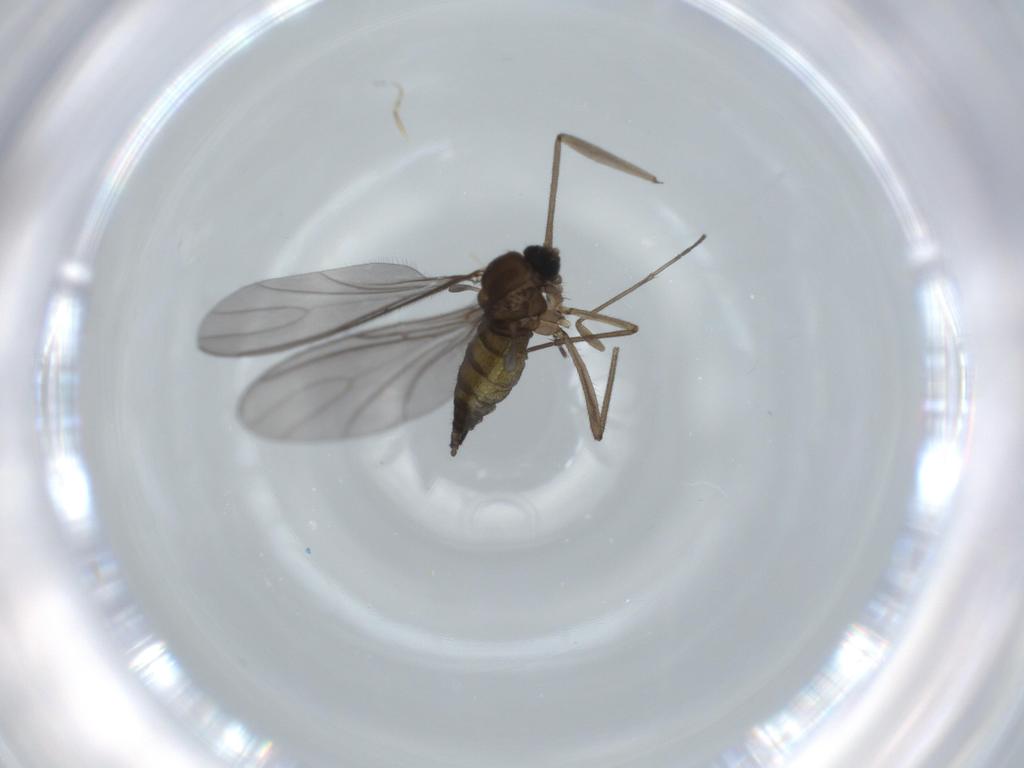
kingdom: Animalia
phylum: Arthropoda
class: Insecta
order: Diptera
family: Sciaridae
